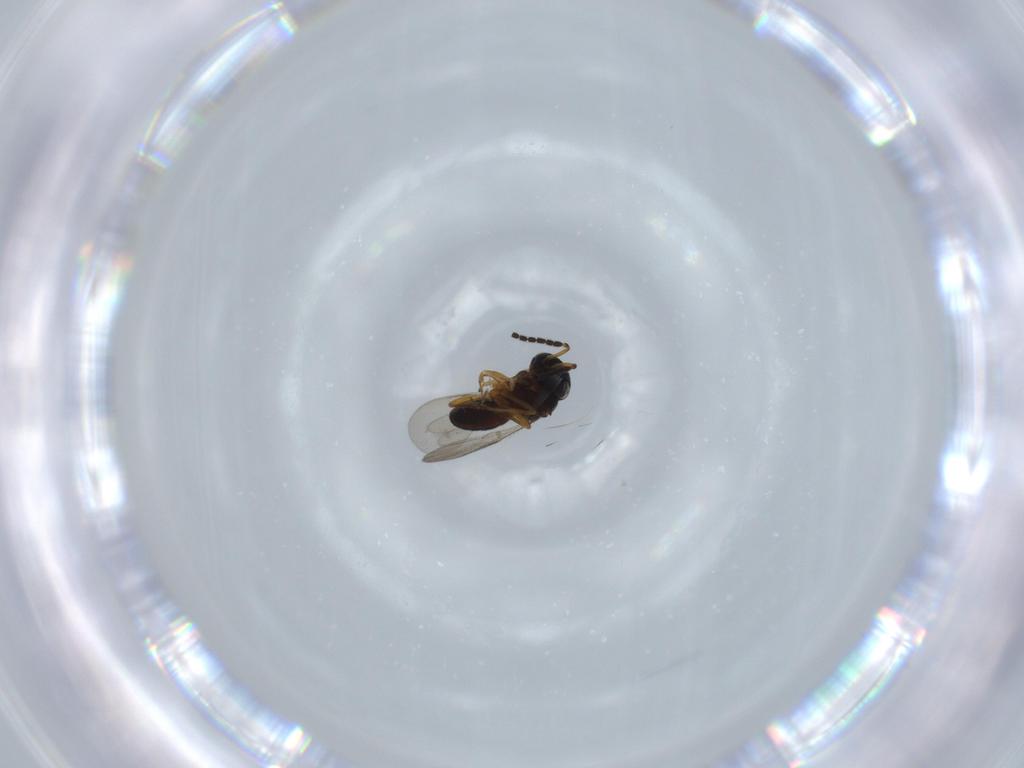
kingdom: Animalia
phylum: Arthropoda
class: Insecta
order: Coleoptera
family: Curculionidae
